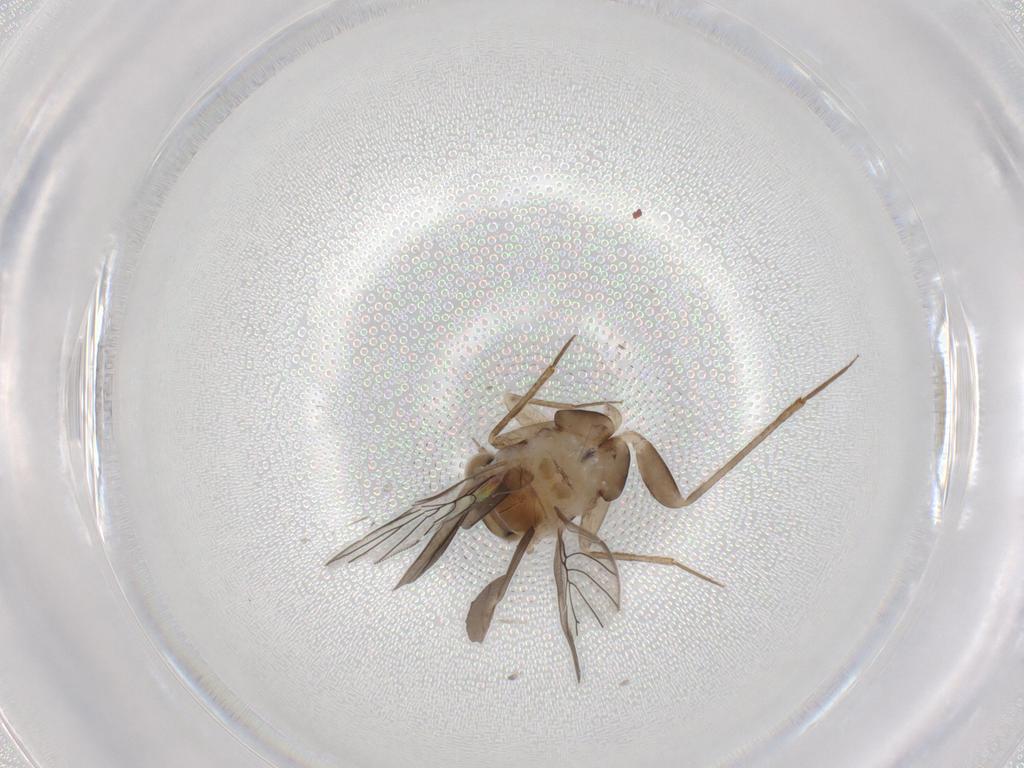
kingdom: Animalia
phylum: Arthropoda
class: Insecta
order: Psocodea
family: Lepidopsocidae
